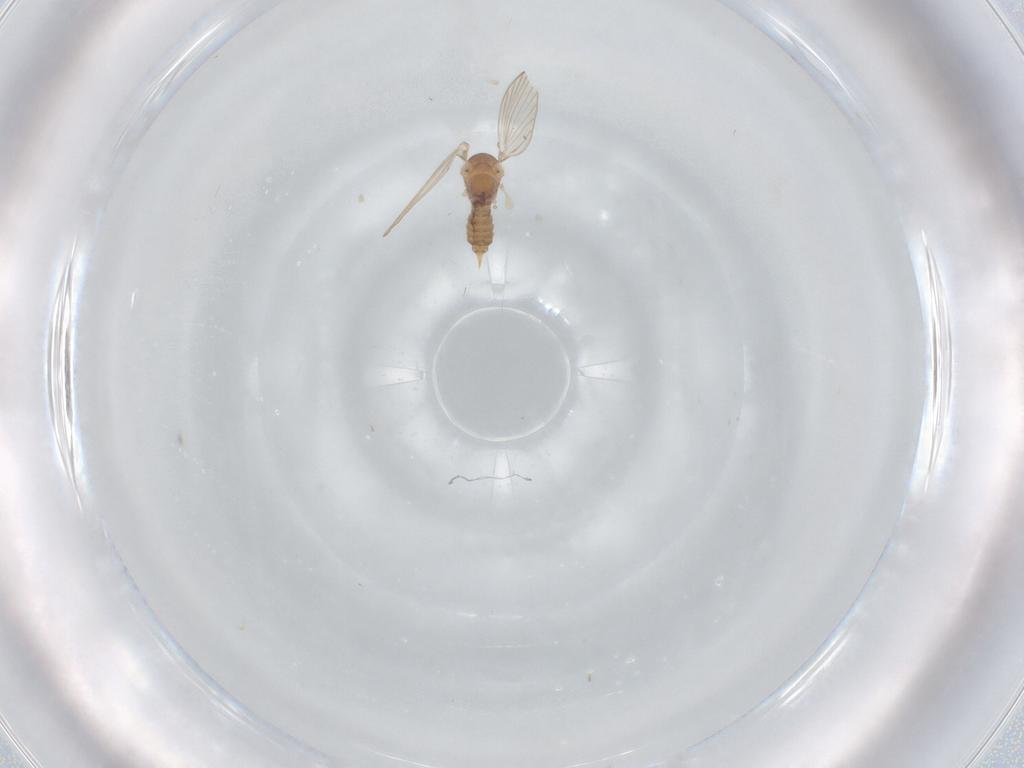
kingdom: Animalia
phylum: Arthropoda
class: Insecta
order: Diptera
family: Psychodidae
